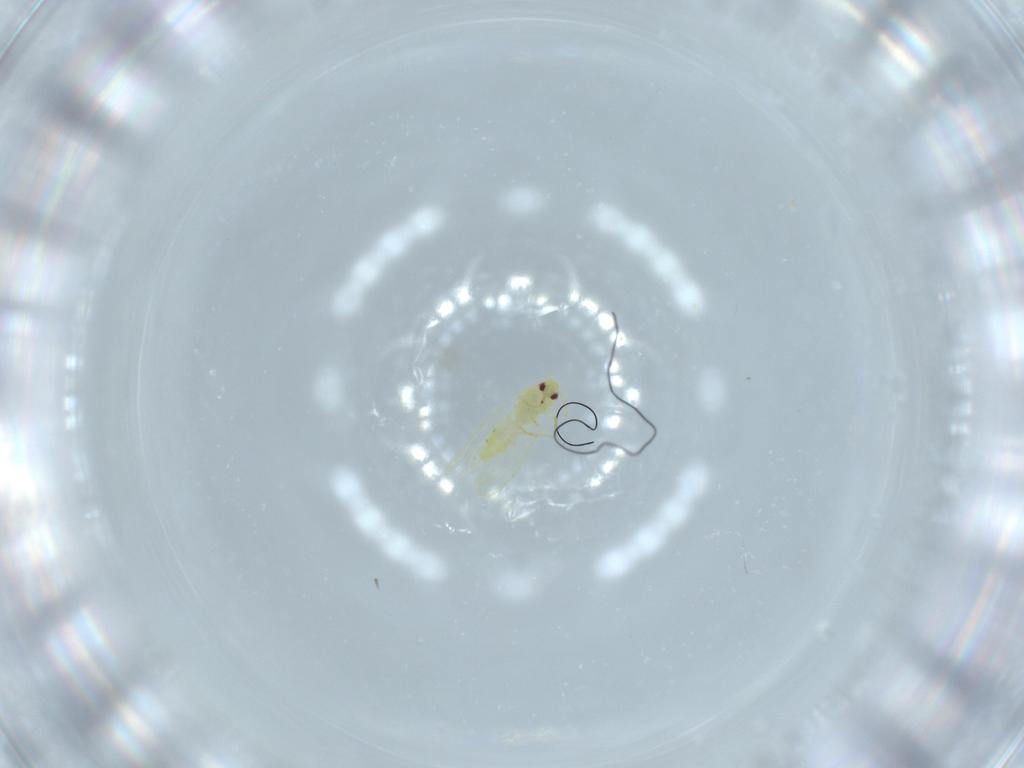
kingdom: Animalia
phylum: Arthropoda
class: Insecta
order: Hemiptera
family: Aleyrodidae
